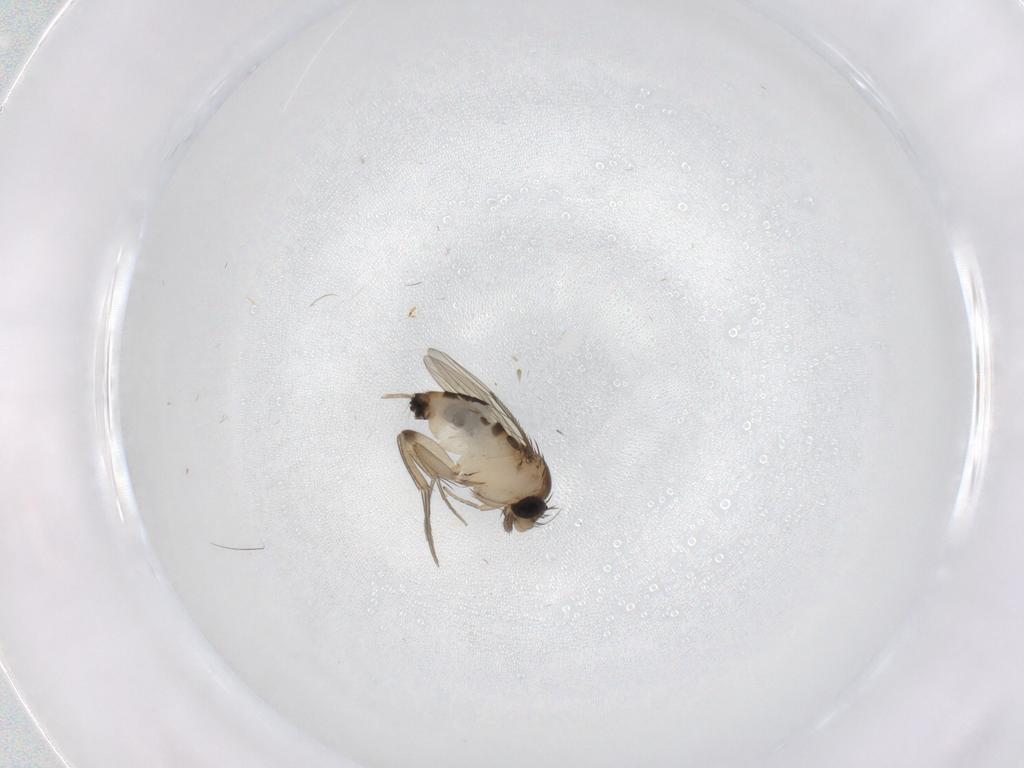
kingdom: Animalia
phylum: Arthropoda
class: Insecta
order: Diptera
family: Phoridae
